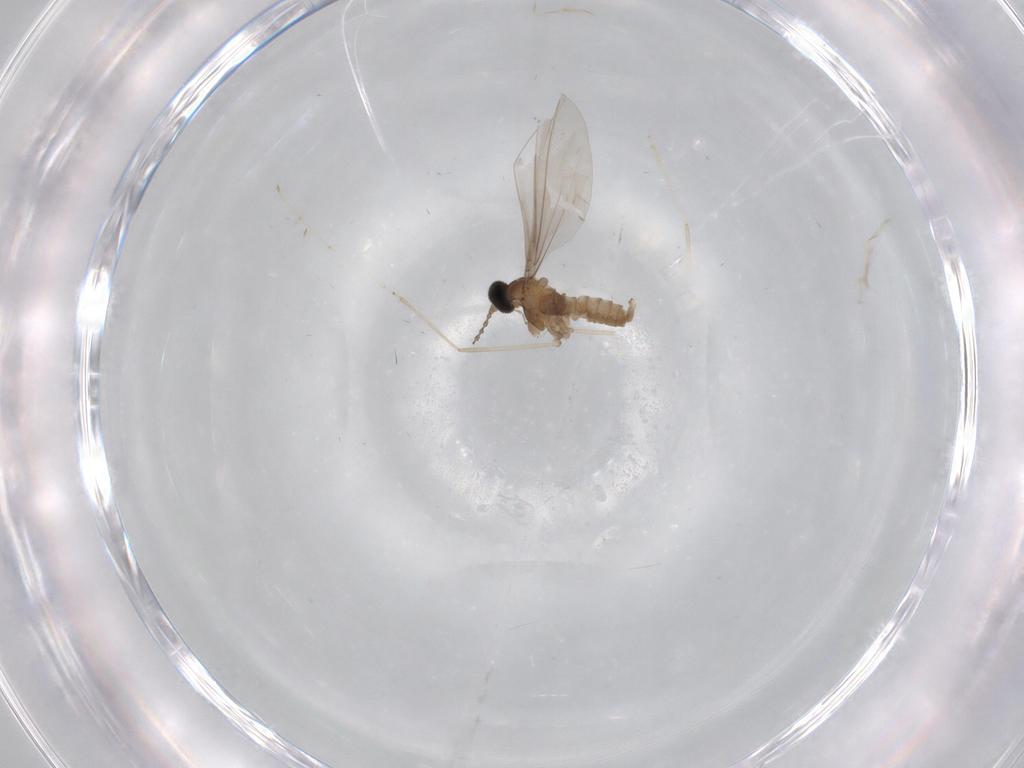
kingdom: Animalia
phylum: Arthropoda
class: Insecta
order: Diptera
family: Cecidomyiidae
